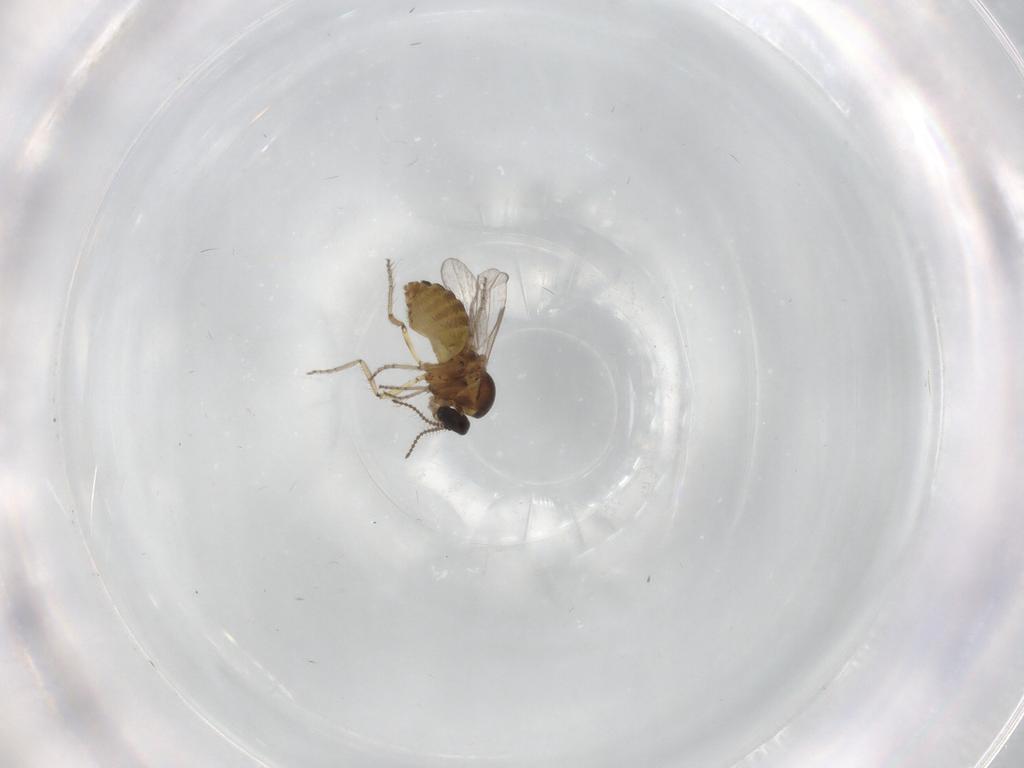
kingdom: Animalia
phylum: Arthropoda
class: Insecta
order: Diptera
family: Ceratopogonidae
